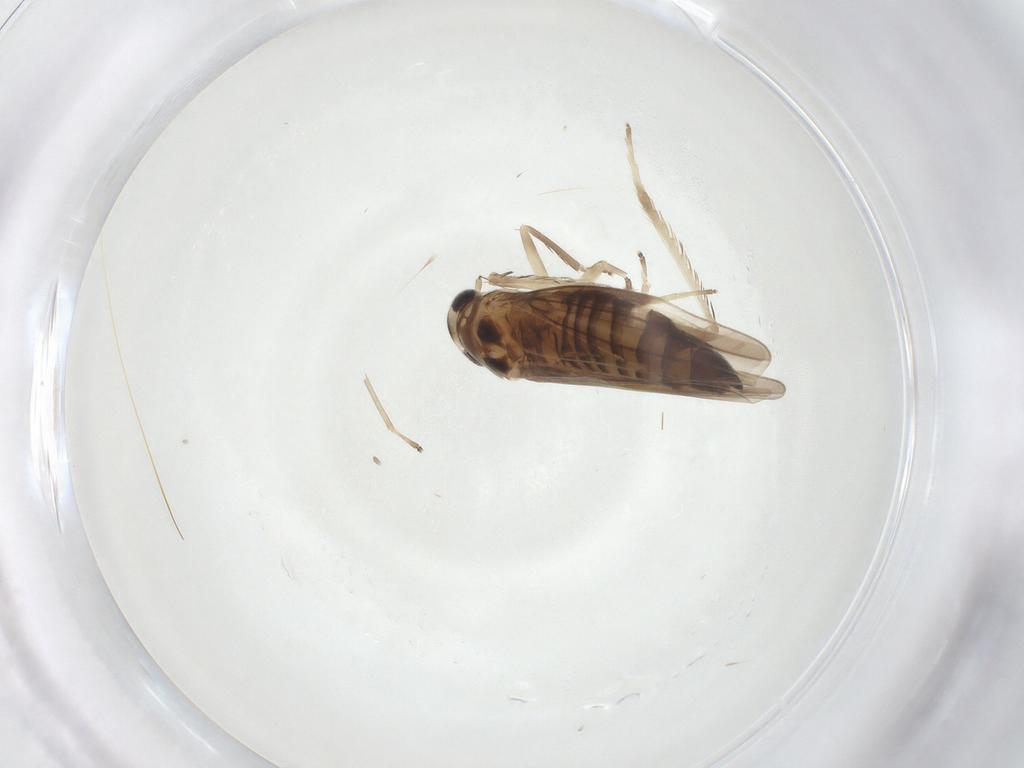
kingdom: Animalia
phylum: Arthropoda
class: Insecta
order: Hemiptera
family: Cicadellidae
